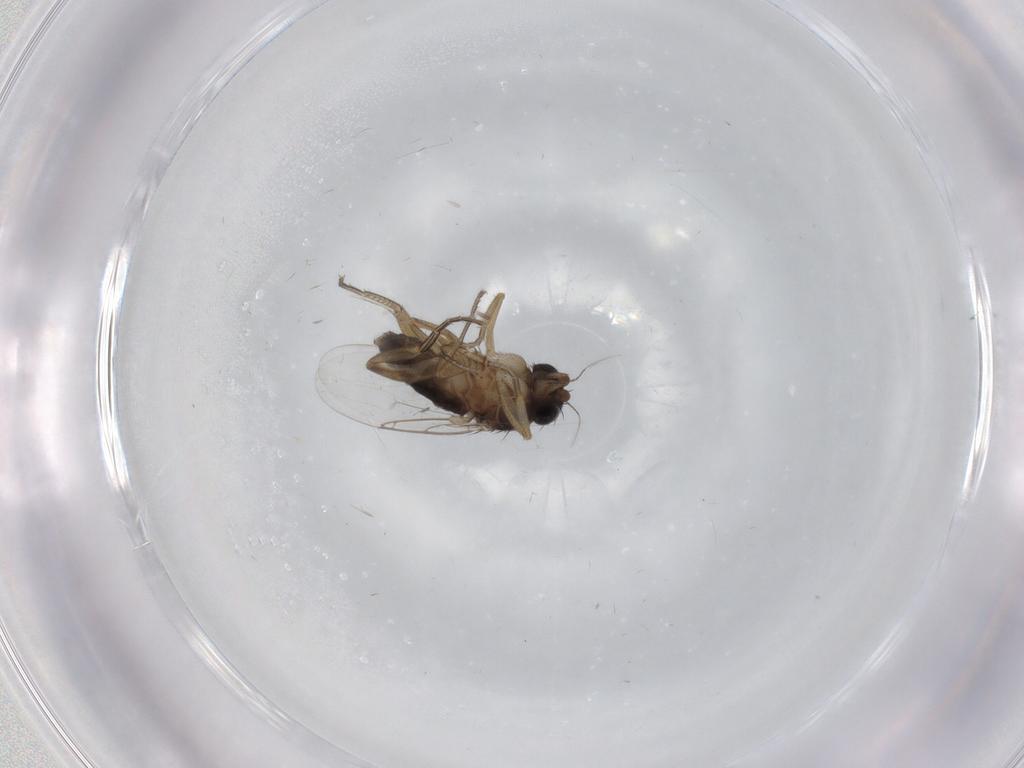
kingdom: Animalia
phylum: Arthropoda
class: Insecta
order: Diptera
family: Phoridae
